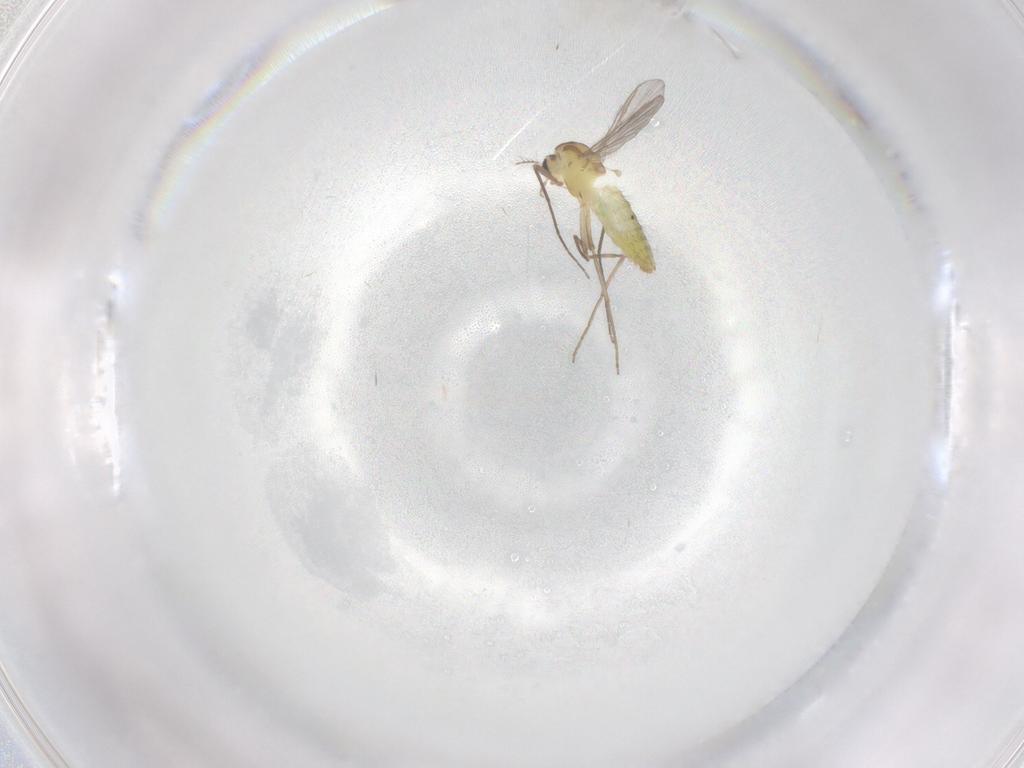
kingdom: Animalia
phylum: Arthropoda
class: Insecta
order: Diptera
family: Chironomidae
